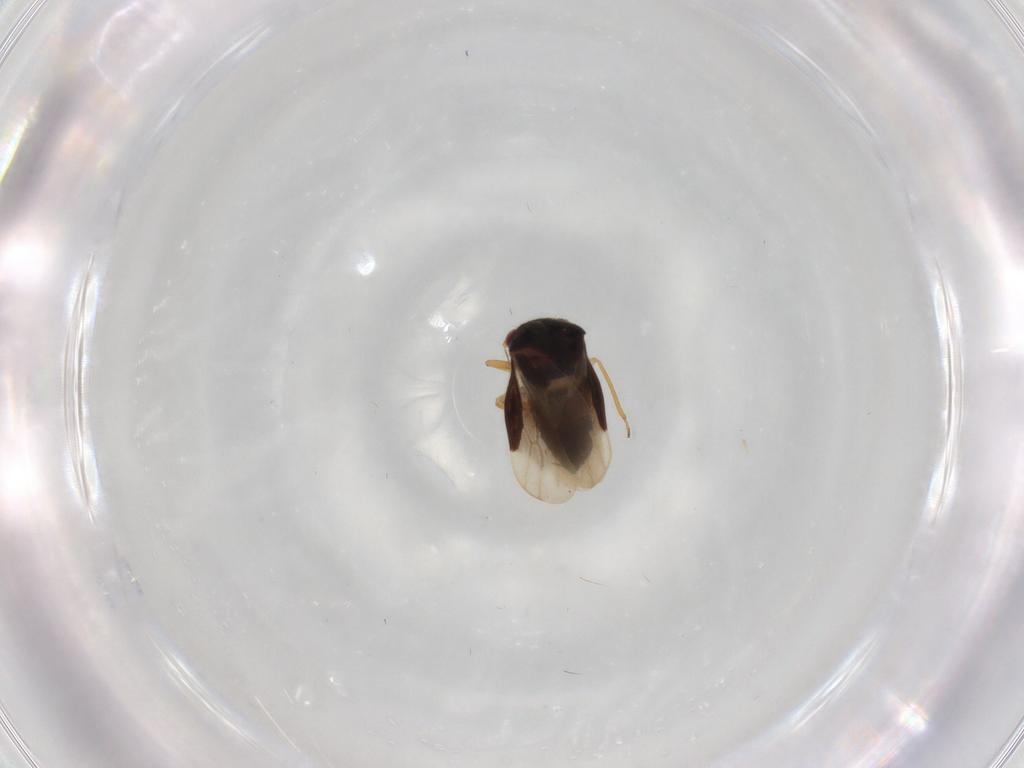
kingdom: Animalia
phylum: Arthropoda
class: Insecta
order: Hemiptera
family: Schizopteridae
